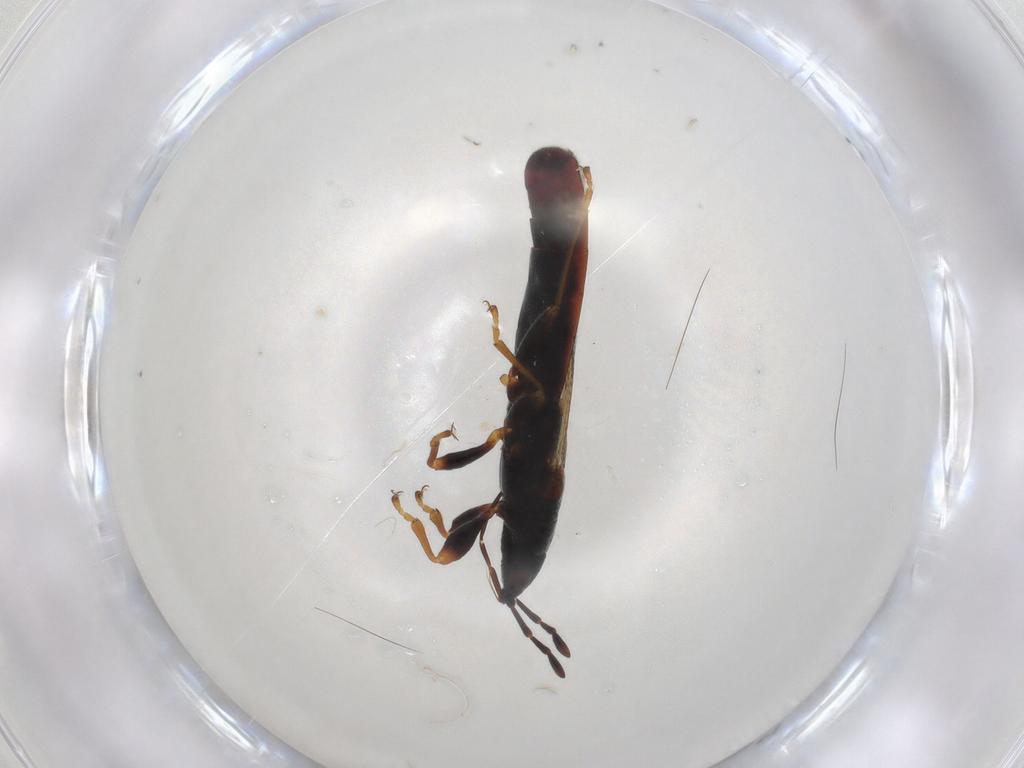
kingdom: Animalia
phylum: Arthropoda
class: Insecta
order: Hemiptera
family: Blissidae
